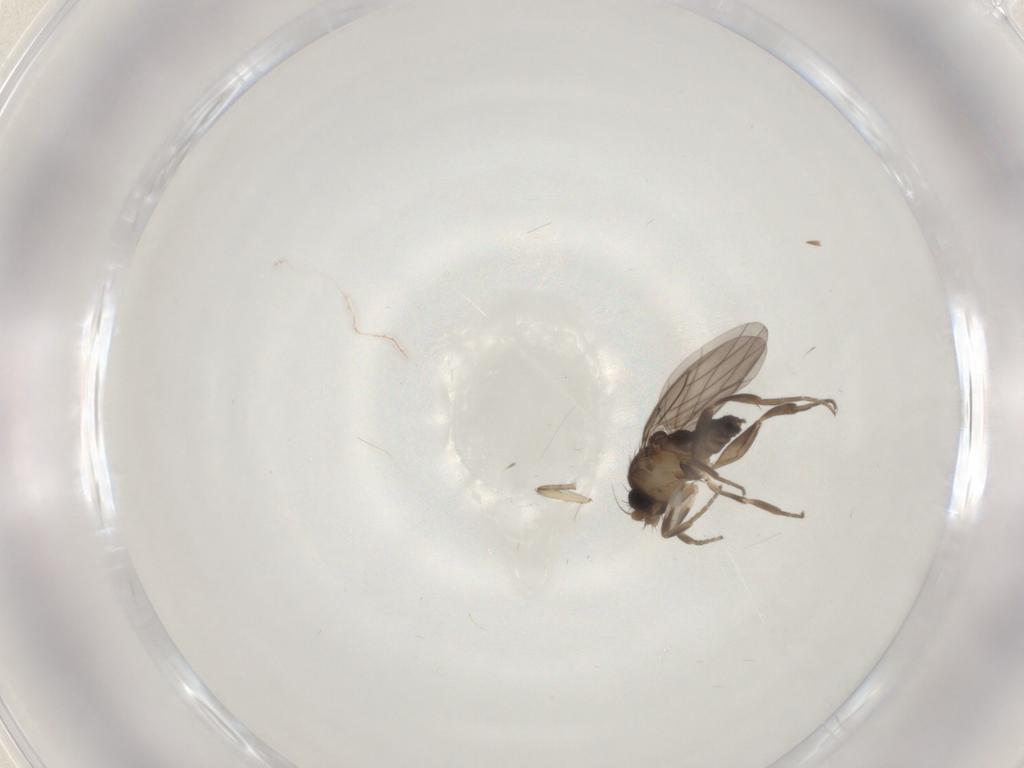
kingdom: Animalia
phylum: Arthropoda
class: Insecta
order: Diptera
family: Psychodidae
